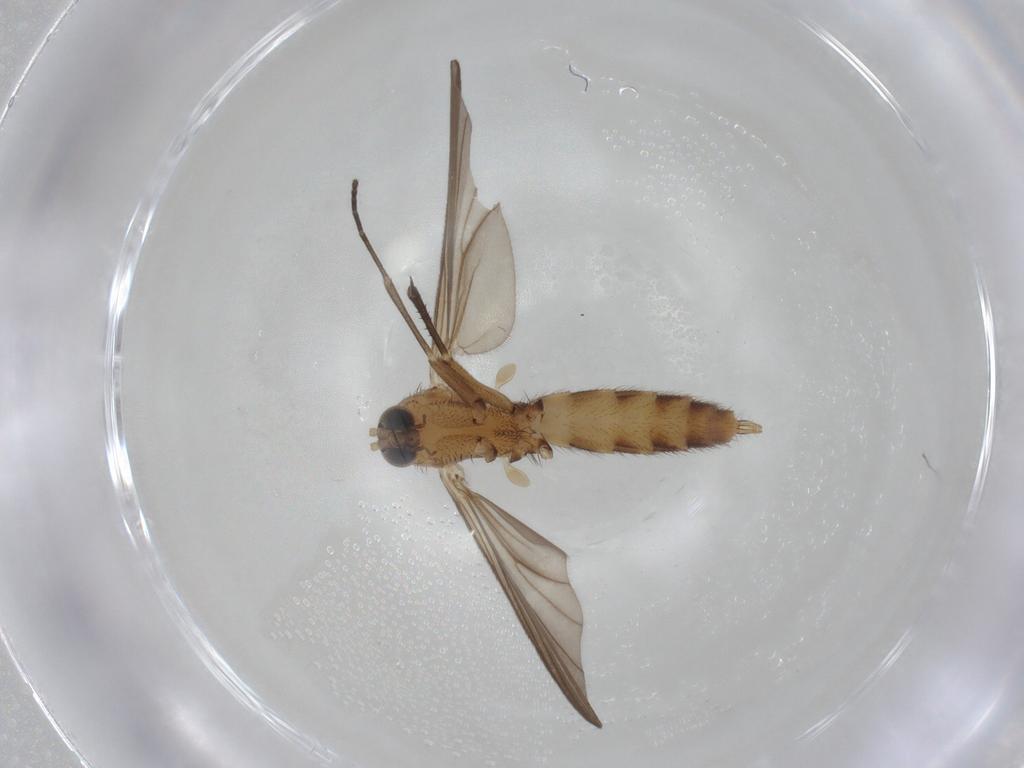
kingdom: Animalia
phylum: Arthropoda
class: Insecta
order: Diptera
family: Mycetophilidae
